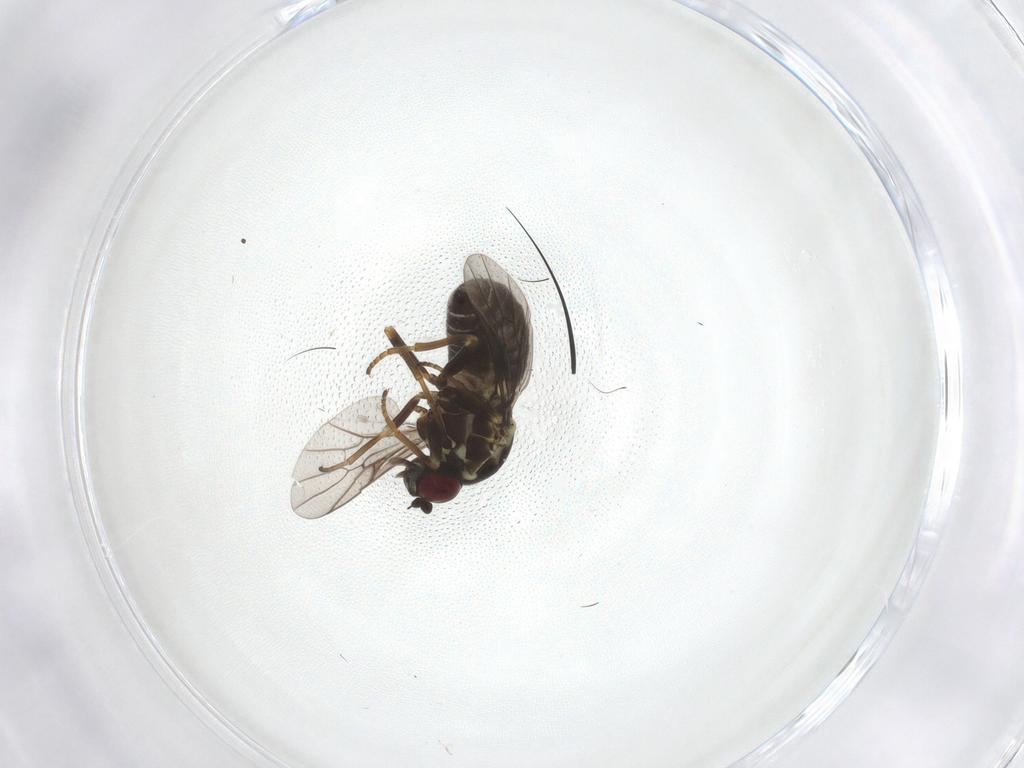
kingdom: Animalia
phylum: Arthropoda
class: Insecta
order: Diptera
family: Bombyliidae
